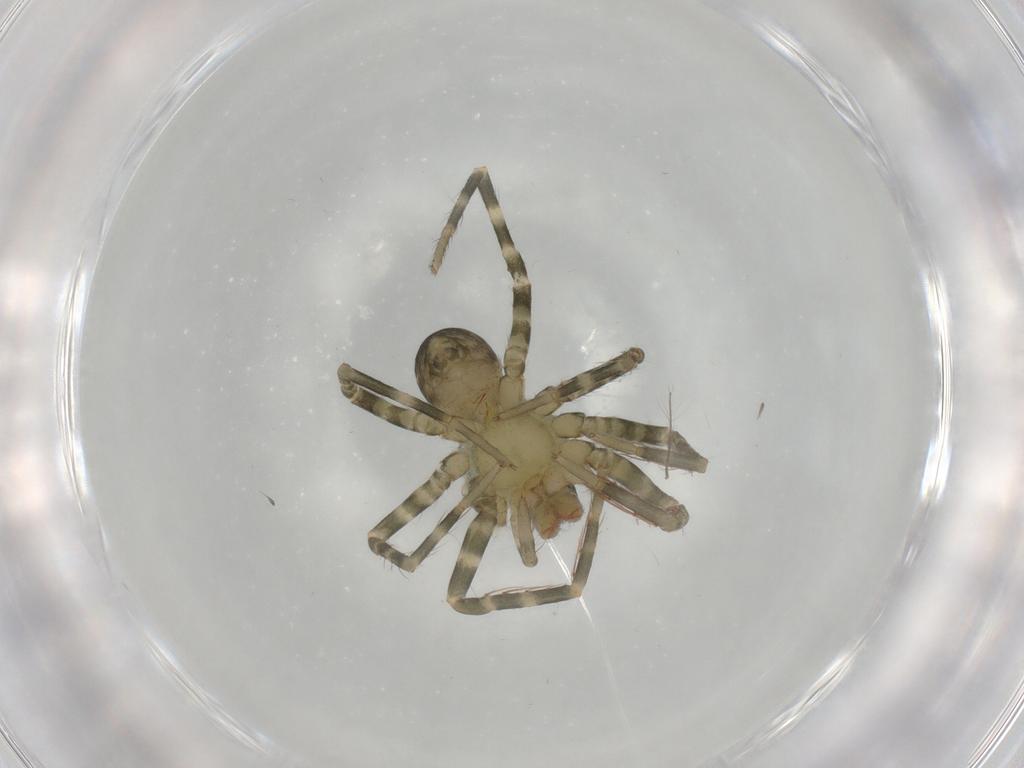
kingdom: Animalia
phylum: Arthropoda
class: Arachnida
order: Araneae
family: Ctenidae
